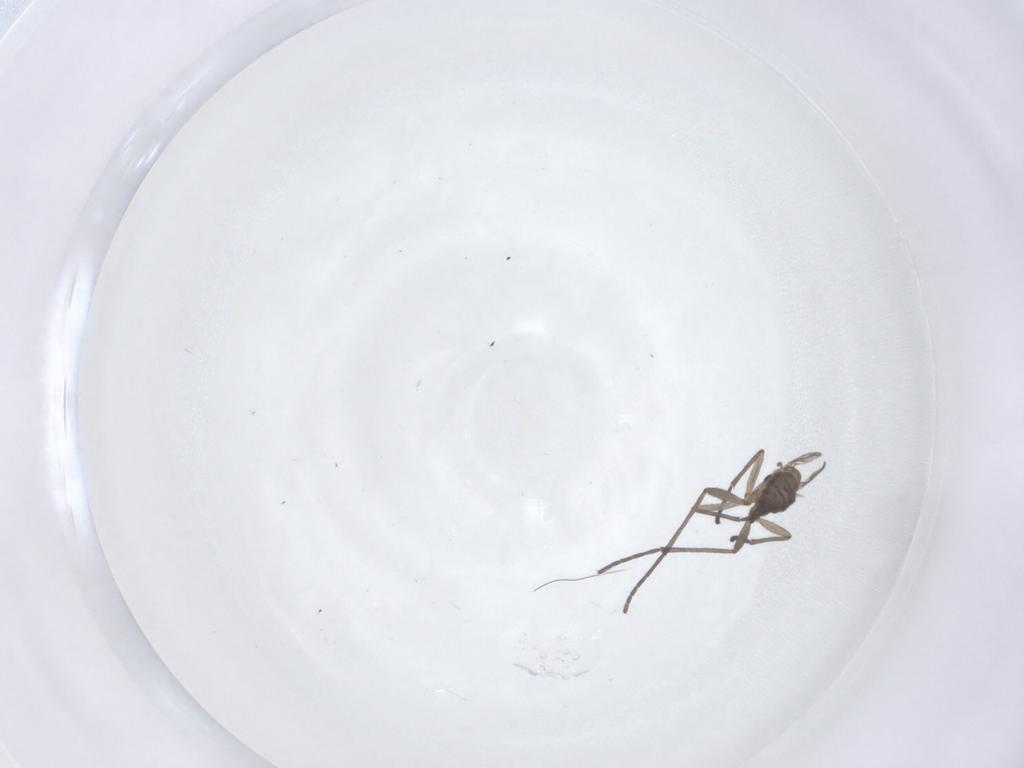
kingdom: Animalia
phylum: Arthropoda
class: Insecta
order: Diptera
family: Sciaridae
